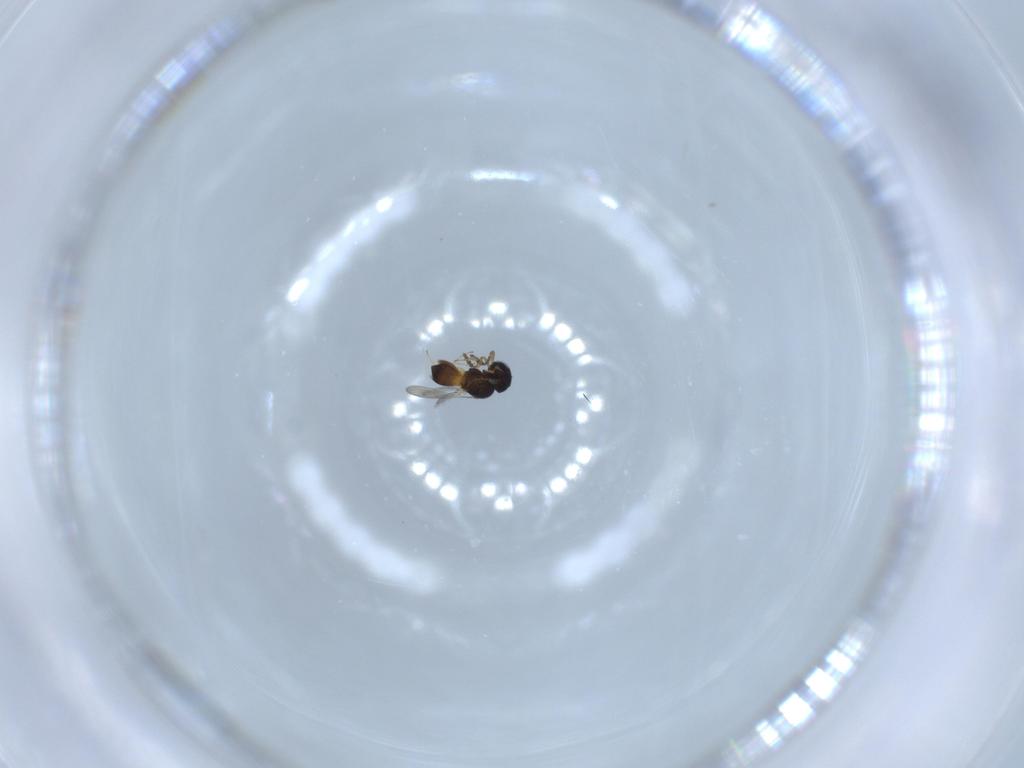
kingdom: Animalia
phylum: Arthropoda
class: Insecta
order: Hymenoptera
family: Scelionidae
